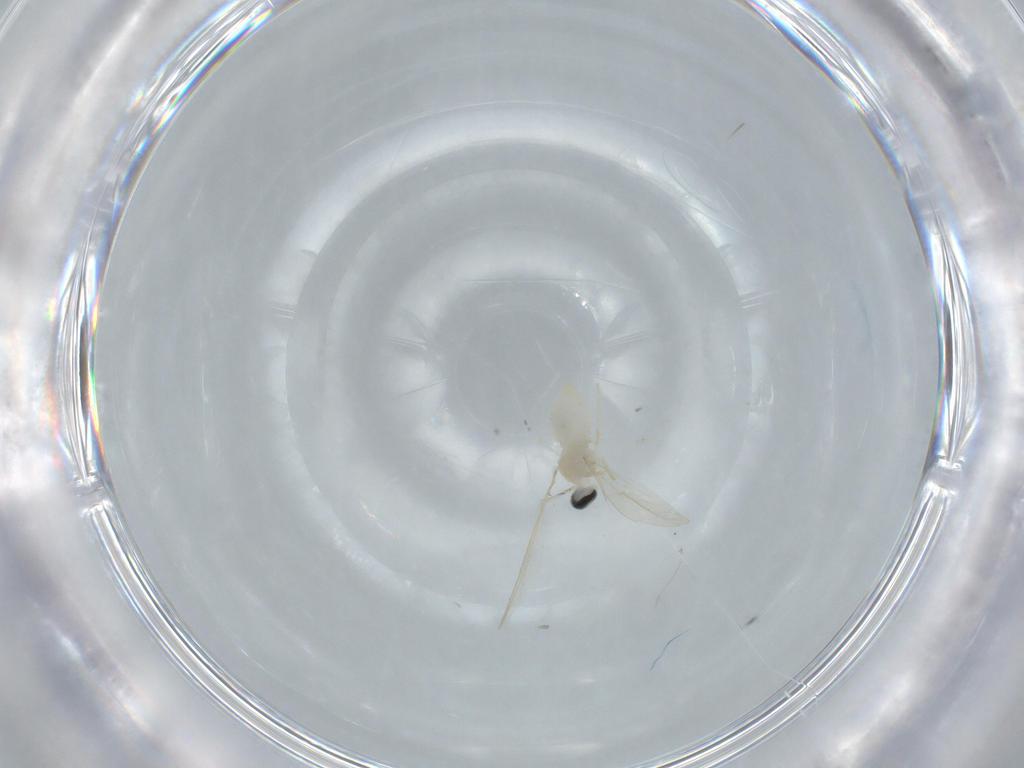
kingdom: Animalia
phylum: Arthropoda
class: Insecta
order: Diptera
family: Cecidomyiidae
